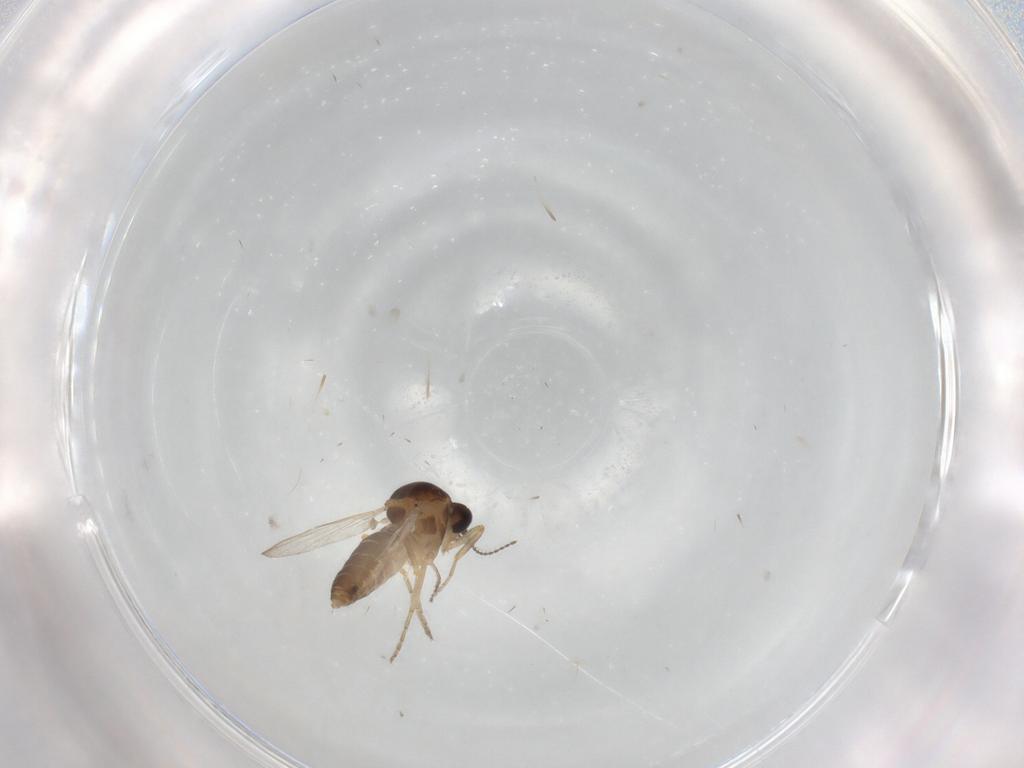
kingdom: Animalia
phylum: Arthropoda
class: Insecta
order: Diptera
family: Ceratopogonidae
